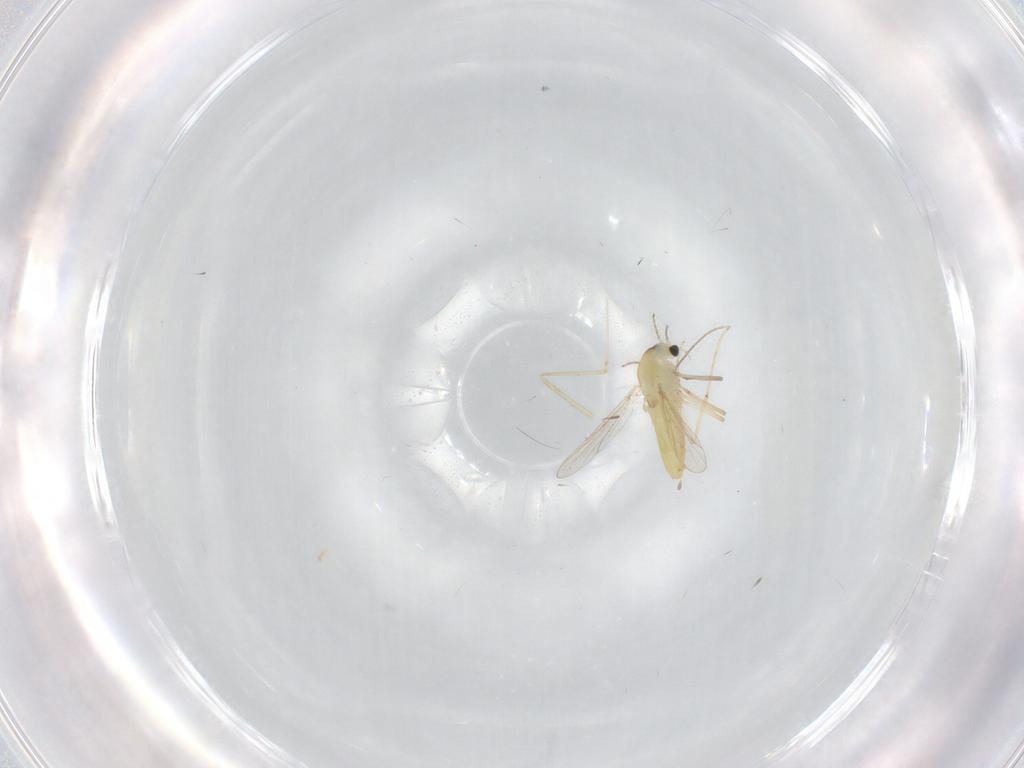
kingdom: Animalia
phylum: Arthropoda
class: Insecta
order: Diptera
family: Chironomidae
